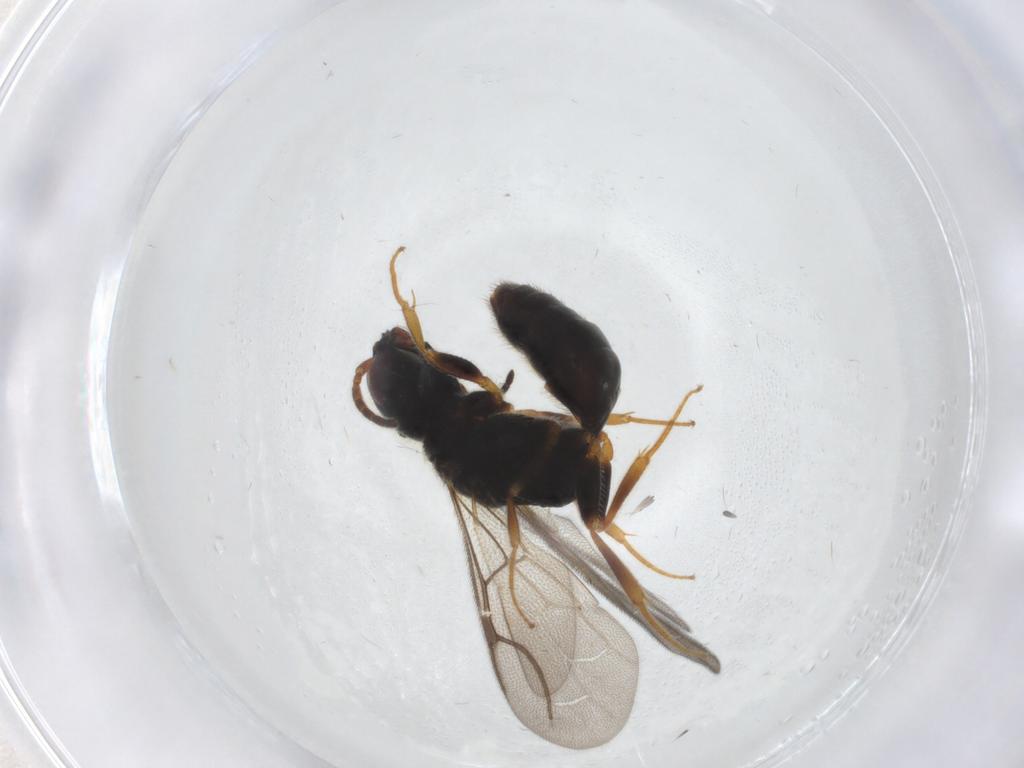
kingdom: Animalia
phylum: Arthropoda
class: Insecta
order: Hymenoptera
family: Bethylidae
